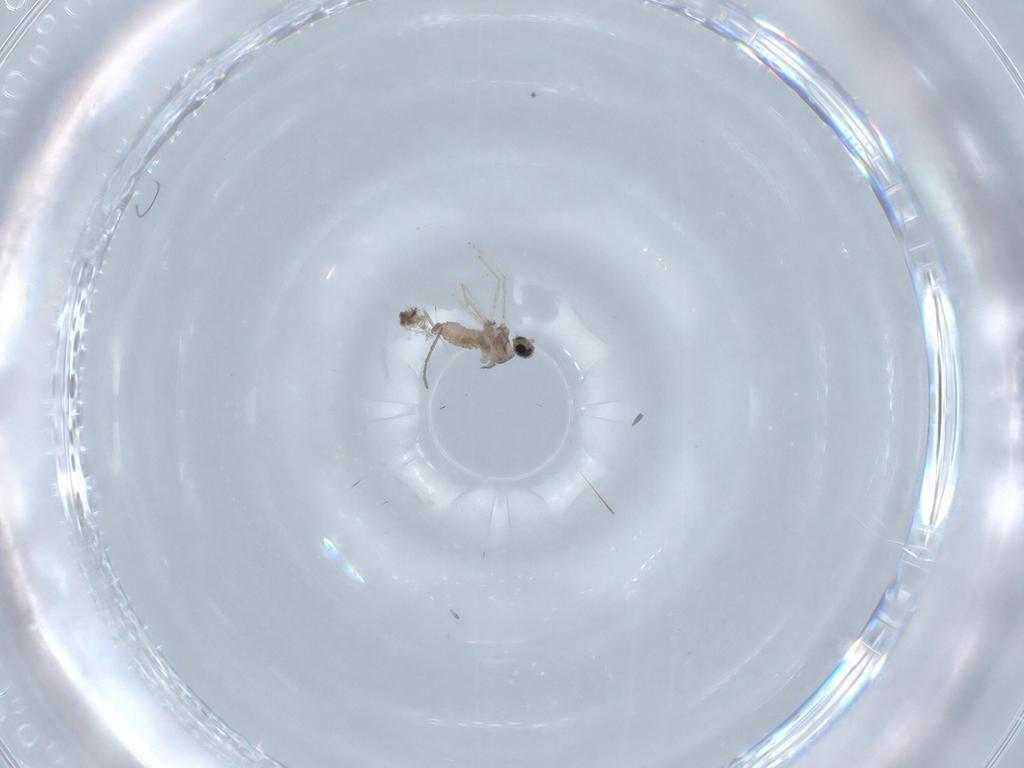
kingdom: Animalia
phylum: Arthropoda
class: Insecta
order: Diptera
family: Cecidomyiidae
